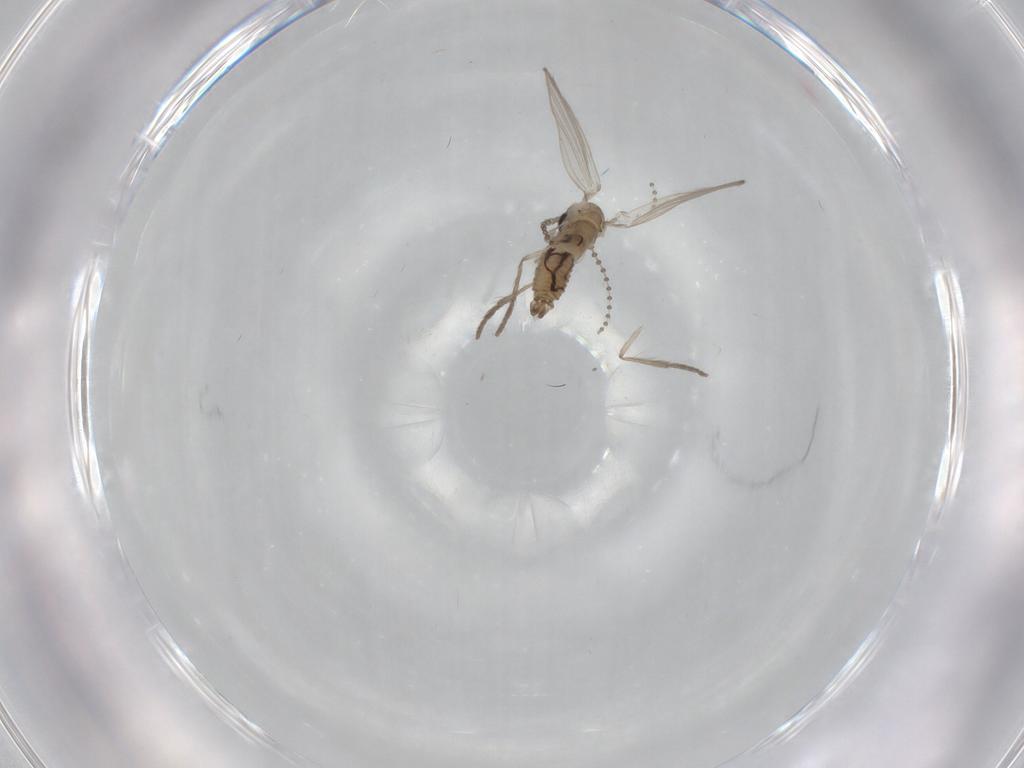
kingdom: Animalia
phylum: Arthropoda
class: Insecta
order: Diptera
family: Psychodidae
